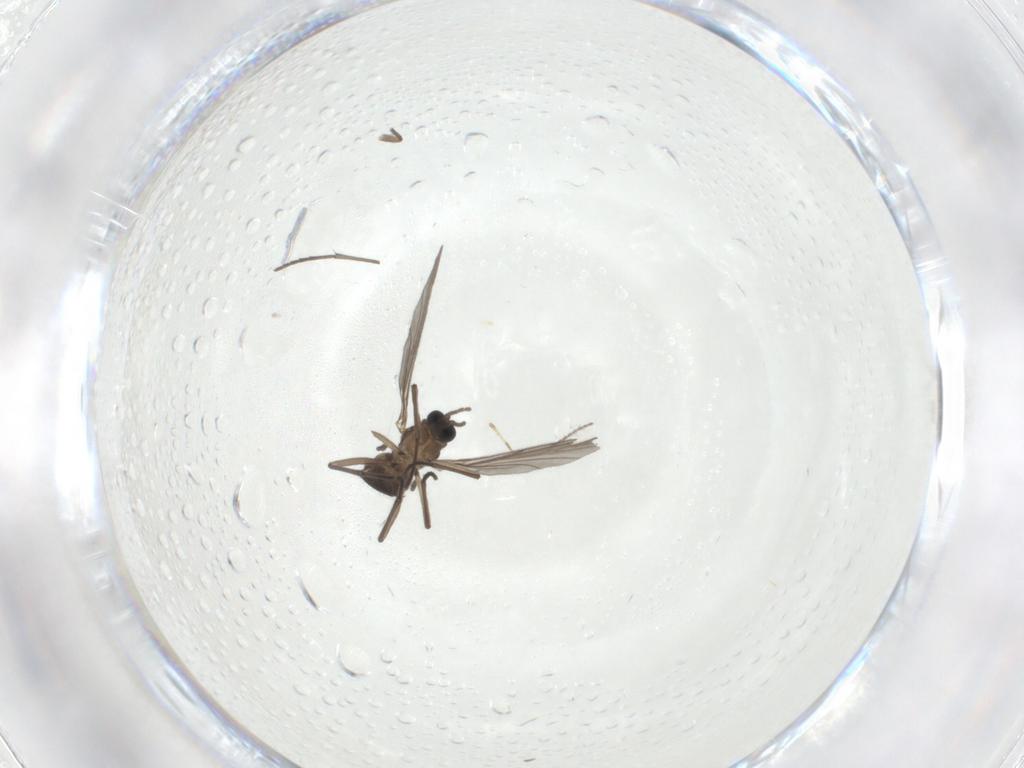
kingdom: Animalia
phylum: Arthropoda
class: Insecta
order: Diptera
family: Sciaridae
